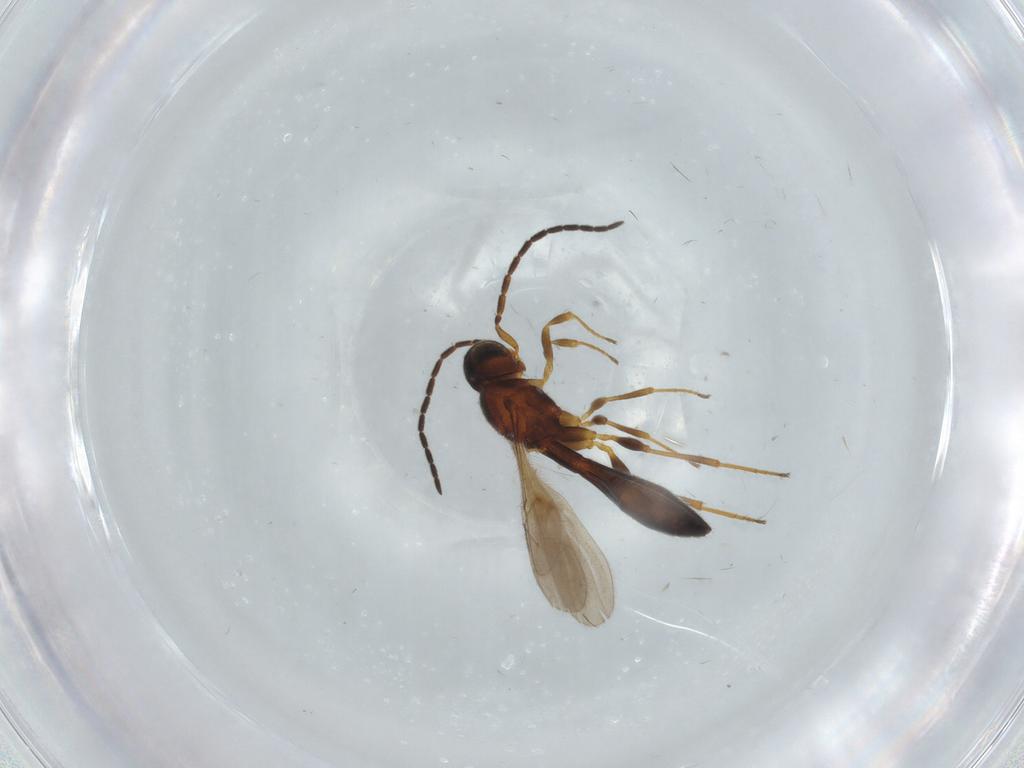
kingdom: Animalia
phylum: Arthropoda
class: Insecta
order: Hymenoptera
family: Scelionidae
